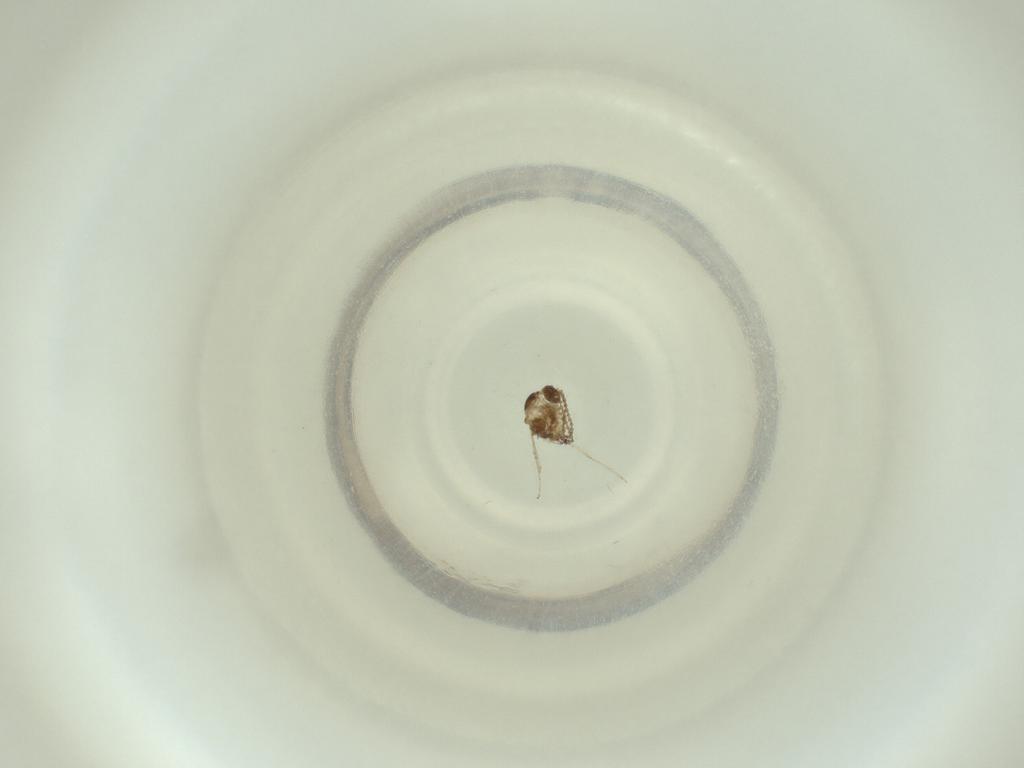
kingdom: Animalia
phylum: Arthropoda
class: Insecta
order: Diptera
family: Cecidomyiidae
